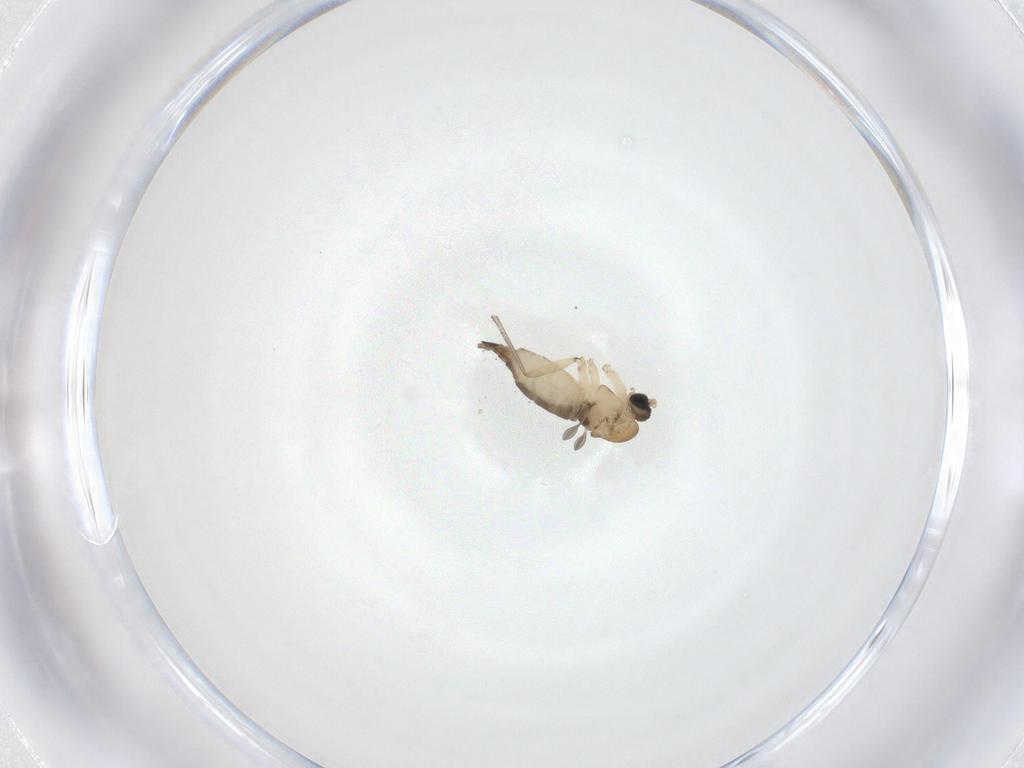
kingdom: Animalia
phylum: Arthropoda
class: Insecta
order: Diptera
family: Sciaridae
